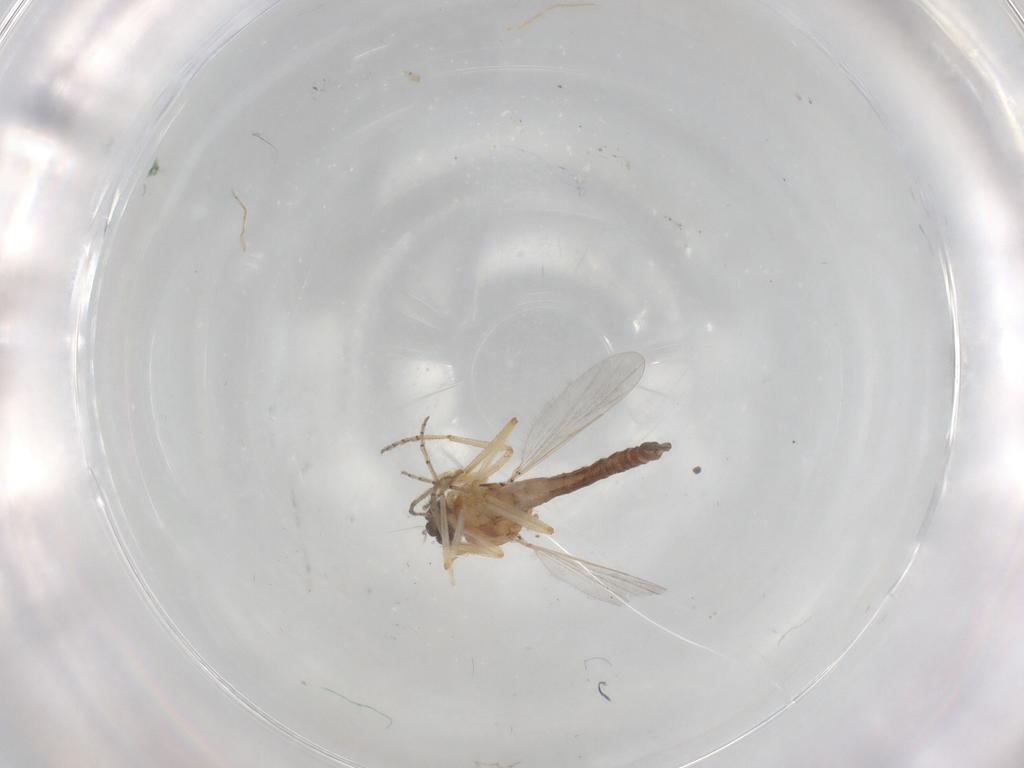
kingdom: Animalia
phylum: Arthropoda
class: Insecta
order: Diptera
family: Ceratopogonidae
